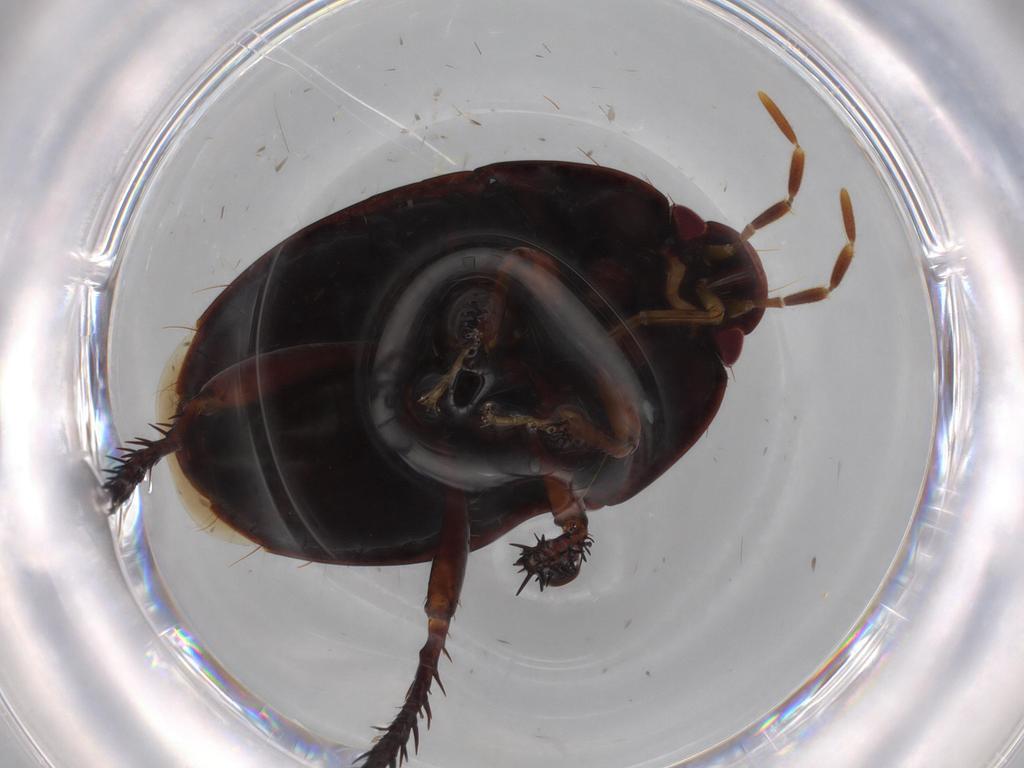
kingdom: Animalia
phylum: Arthropoda
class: Insecta
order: Hemiptera
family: Cydnidae
